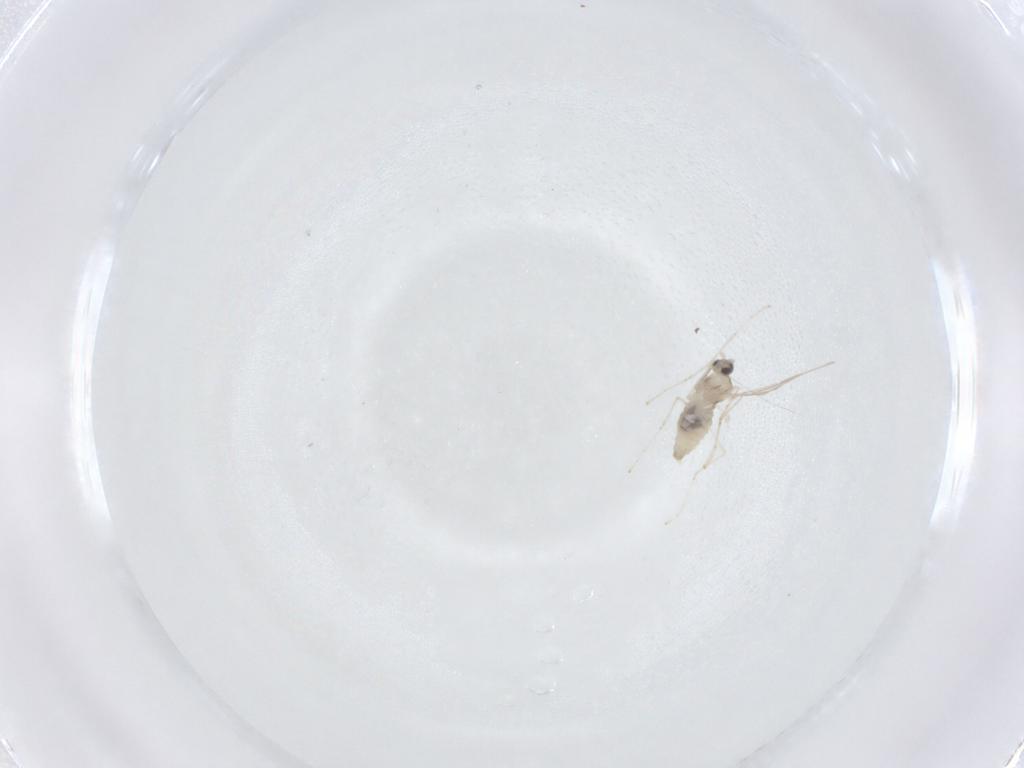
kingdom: Animalia
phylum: Arthropoda
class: Insecta
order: Diptera
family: Cecidomyiidae
